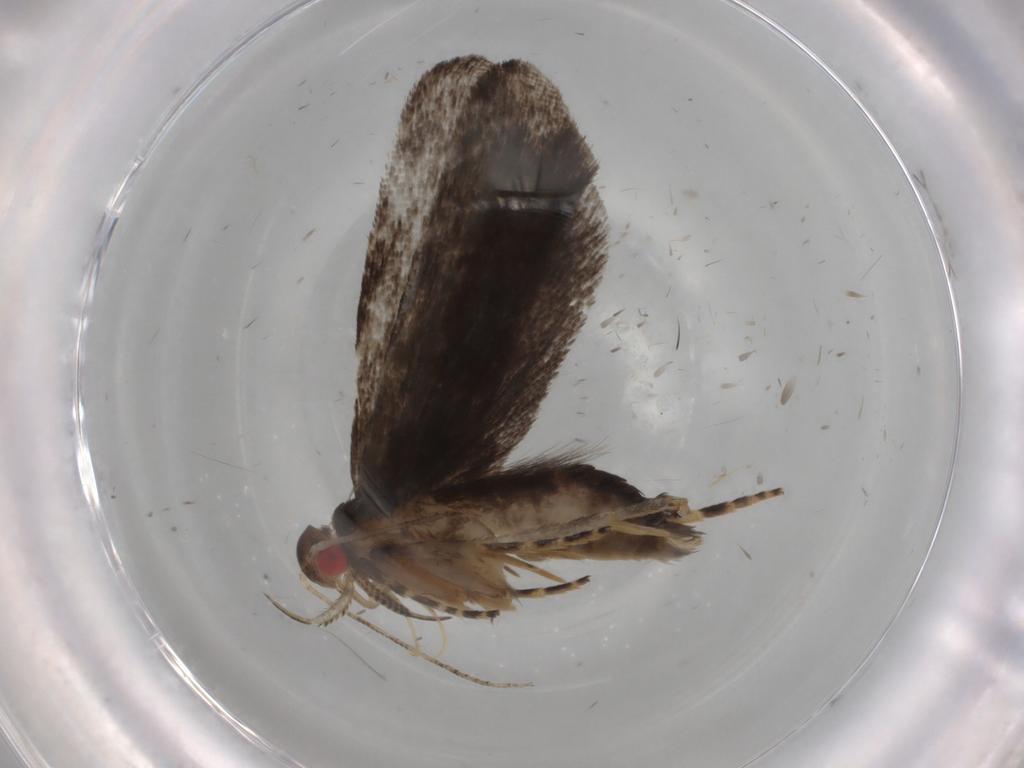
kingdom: Animalia
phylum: Arthropoda
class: Insecta
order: Lepidoptera
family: Gelechiidae
